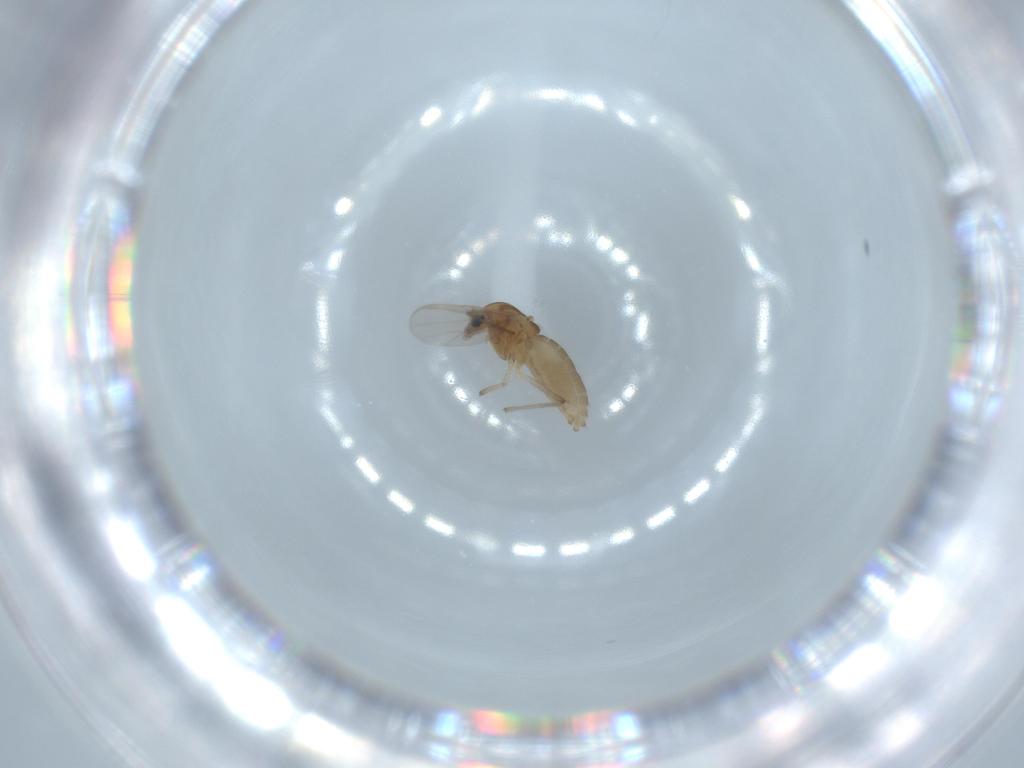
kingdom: Animalia
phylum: Arthropoda
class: Insecta
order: Diptera
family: Chironomidae
